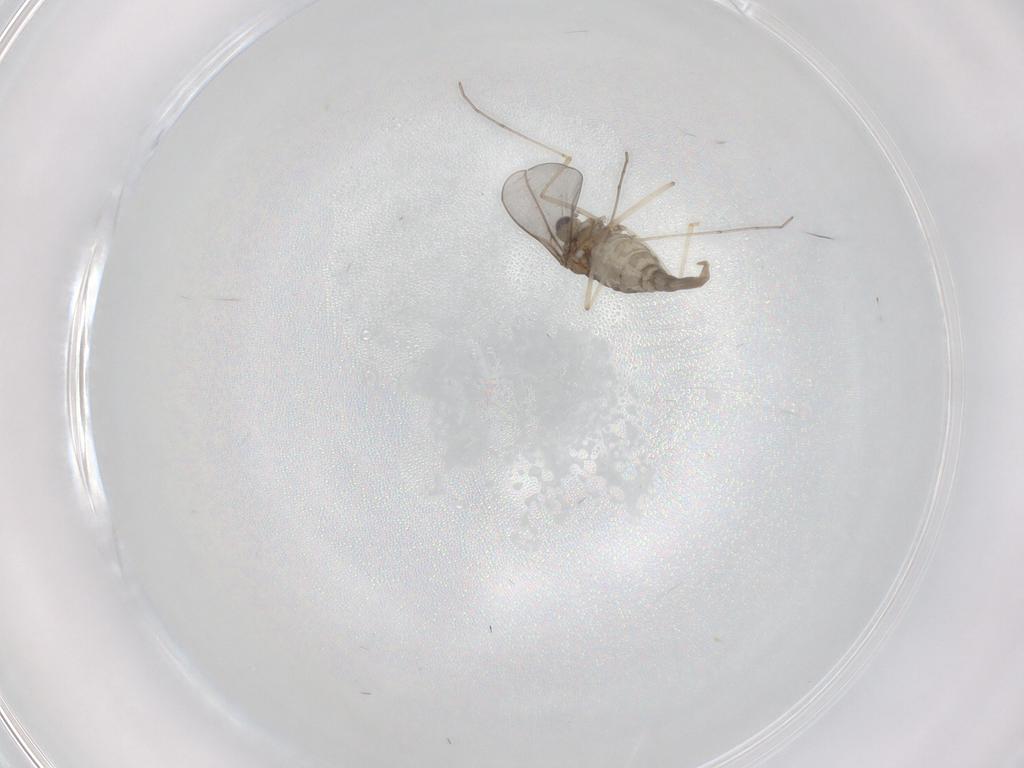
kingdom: Animalia
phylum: Arthropoda
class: Insecta
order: Diptera
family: Cecidomyiidae
